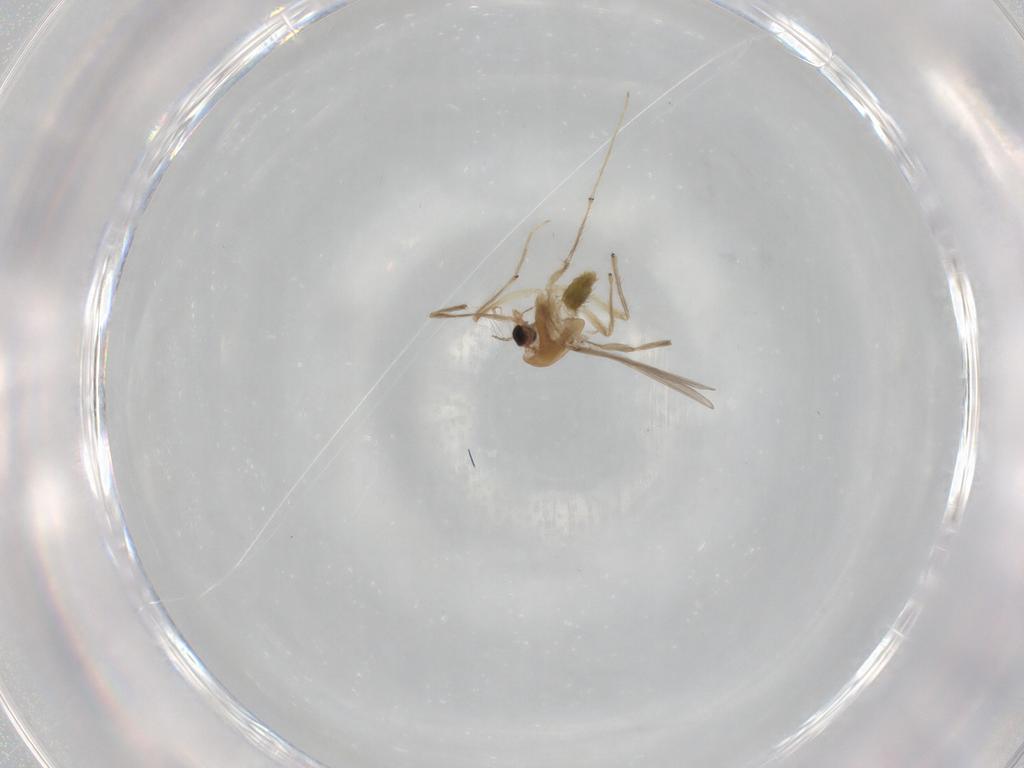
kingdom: Animalia
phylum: Arthropoda
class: Insecta
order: Diptera
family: Chironomidae
